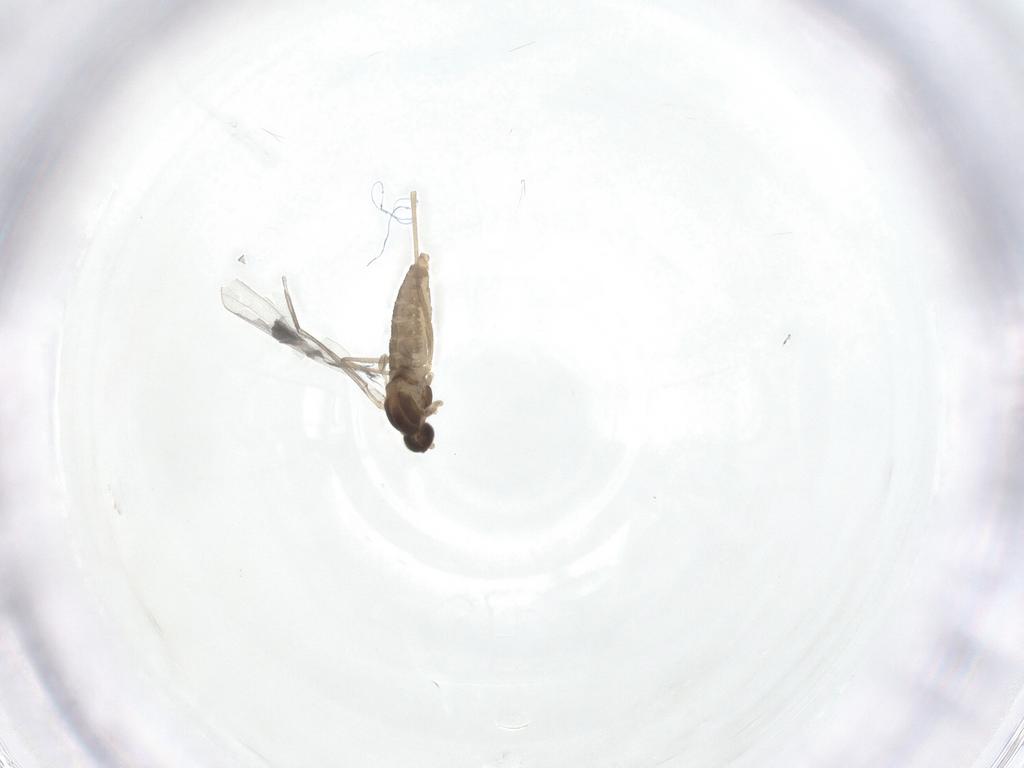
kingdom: Animalia
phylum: Arthropoda
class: Insecta
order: Diptera
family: Cecidomyiidae
